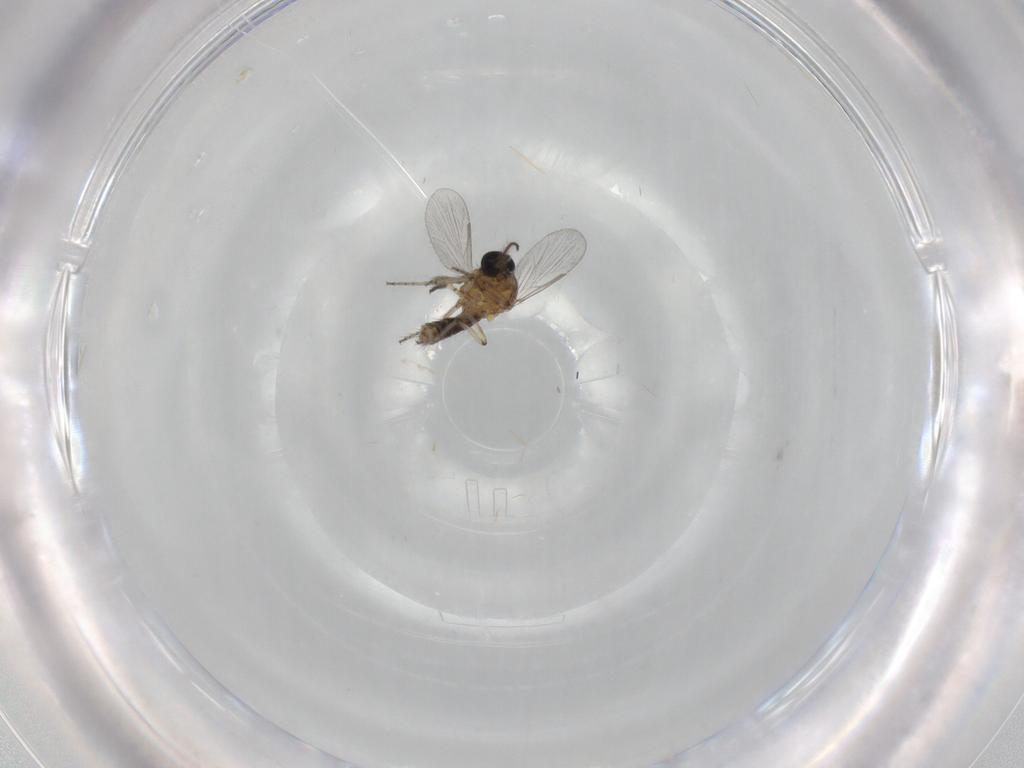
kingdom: Animalia
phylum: Arthropoda
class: Insecta
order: Diptera
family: Ceratopogonidae
